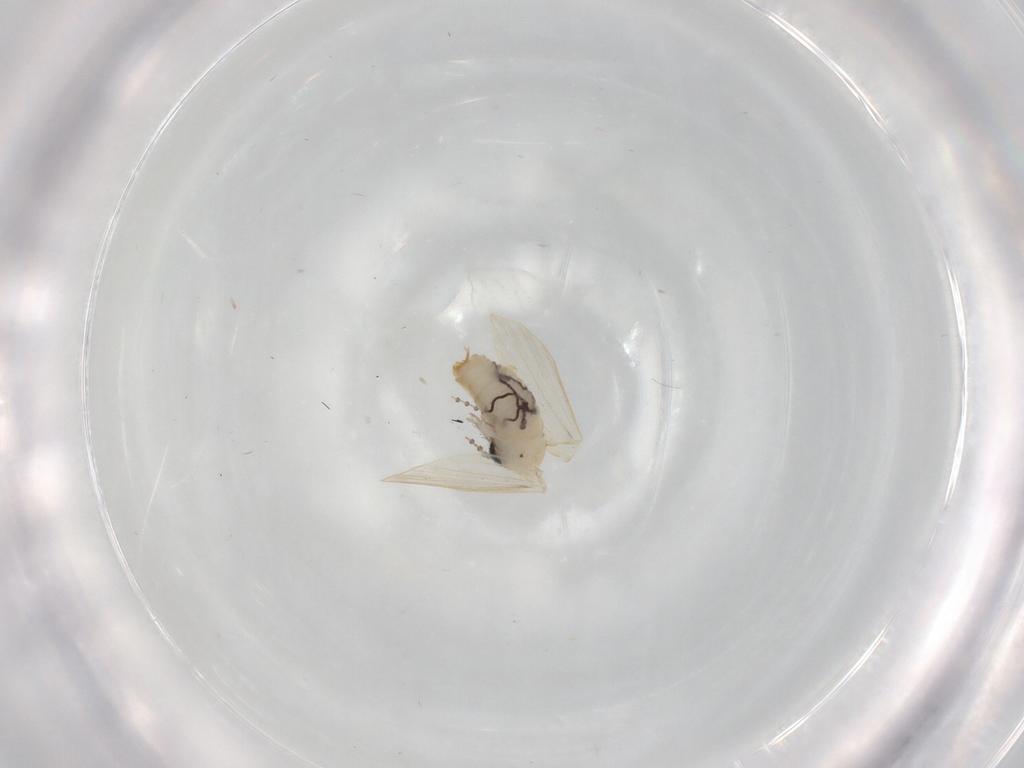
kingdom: Animalia
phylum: Arthropoda
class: Insecta
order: Diptera
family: Psychodidae
